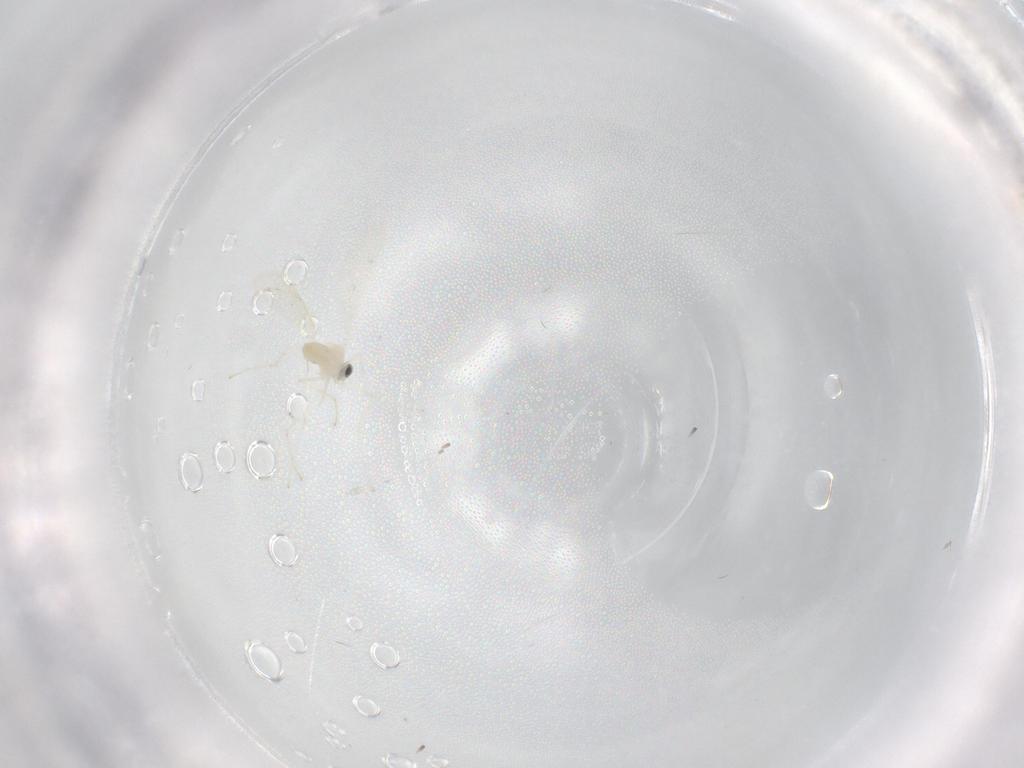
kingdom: Animalia
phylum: Arthropoda
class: Insecta
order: Diptera
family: Cecidomyiidae
